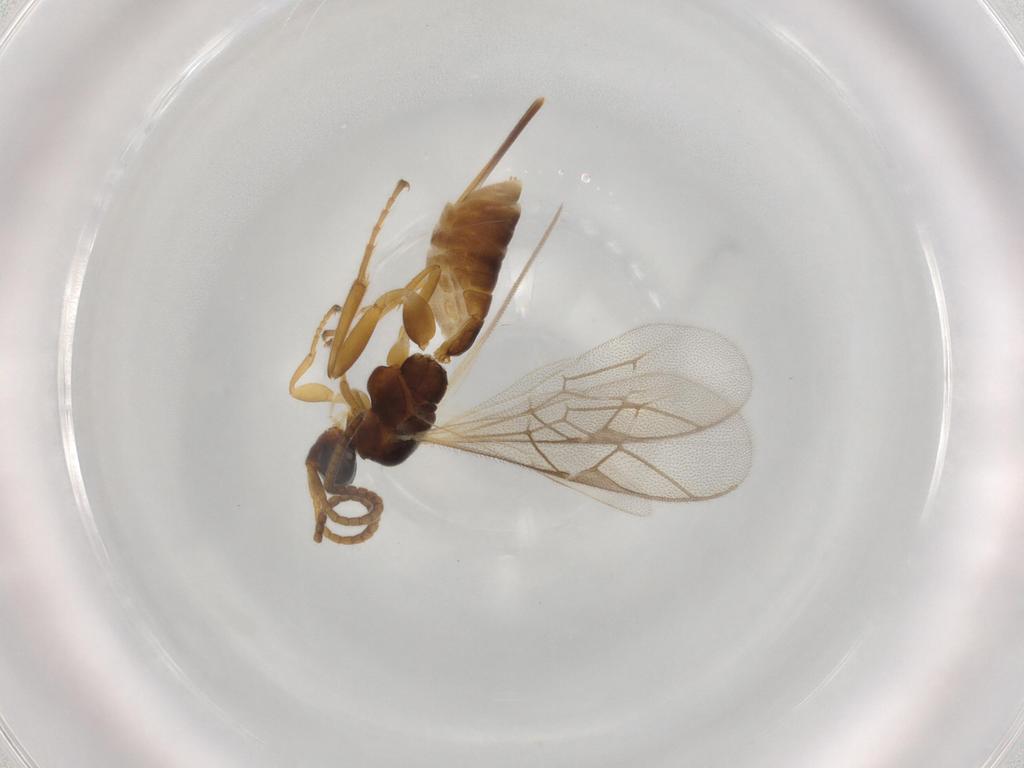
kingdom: Animalia
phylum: Arthropoda
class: Insecta
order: Hymenoptera
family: Ichneumonidae
